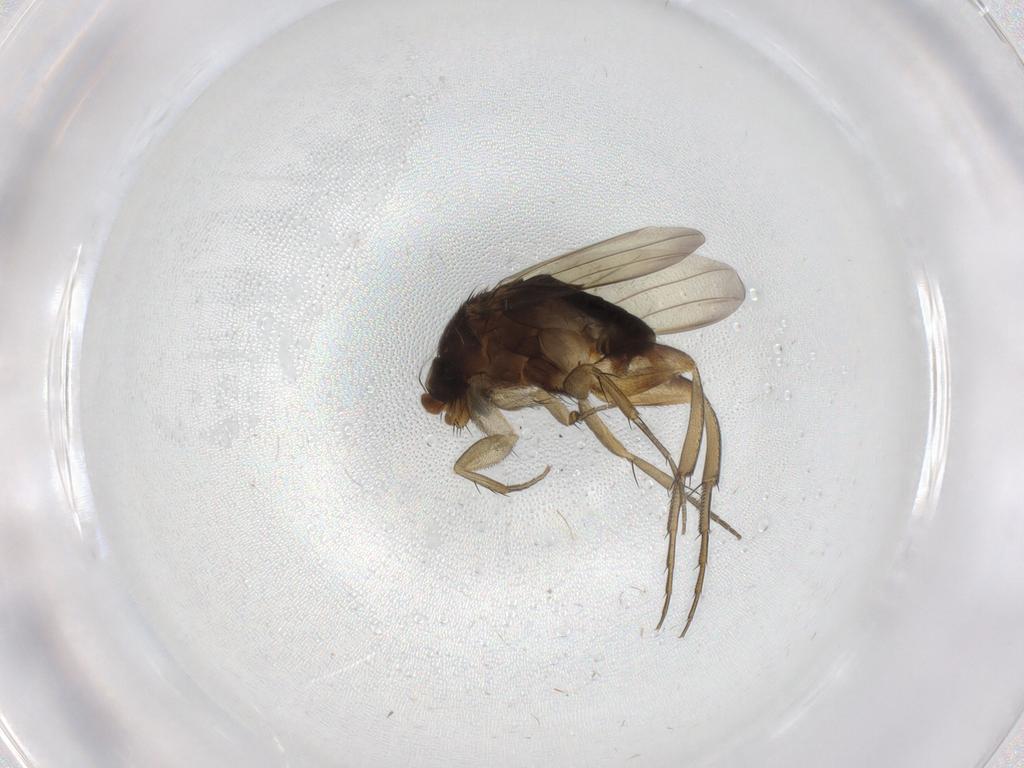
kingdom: Animalia
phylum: Arthropoda
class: Insecta
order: Diptera
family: Phoridae
